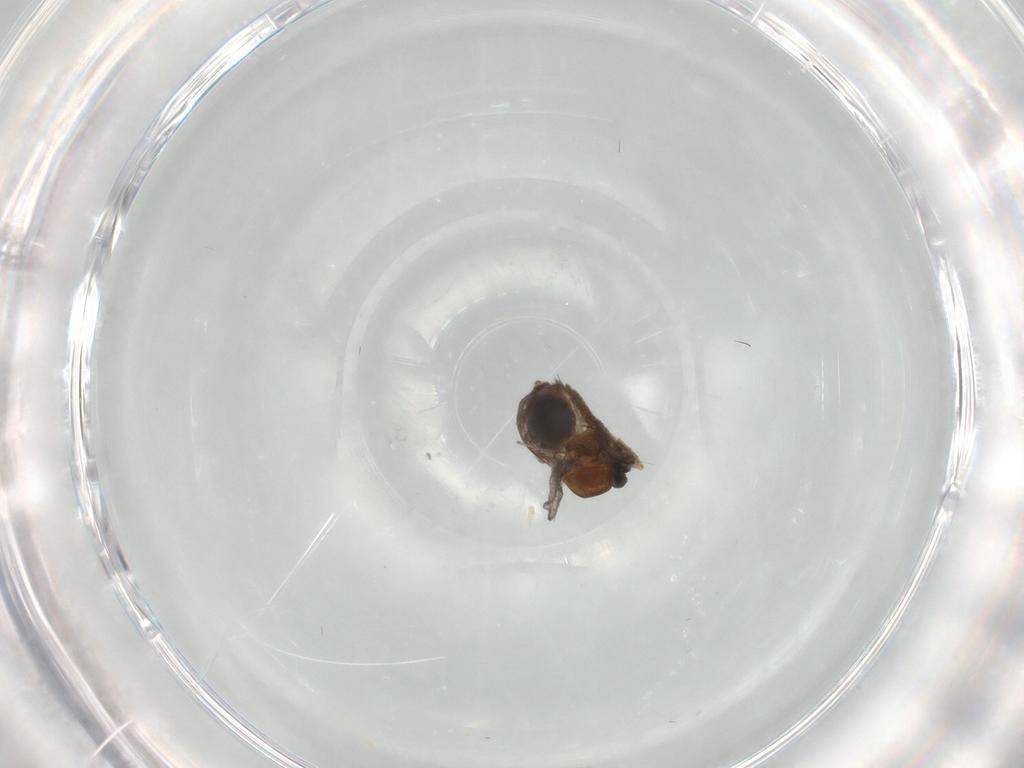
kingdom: Animalia
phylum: Arthropoda
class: Insecta
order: Diptera
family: Ceratopogonidae
